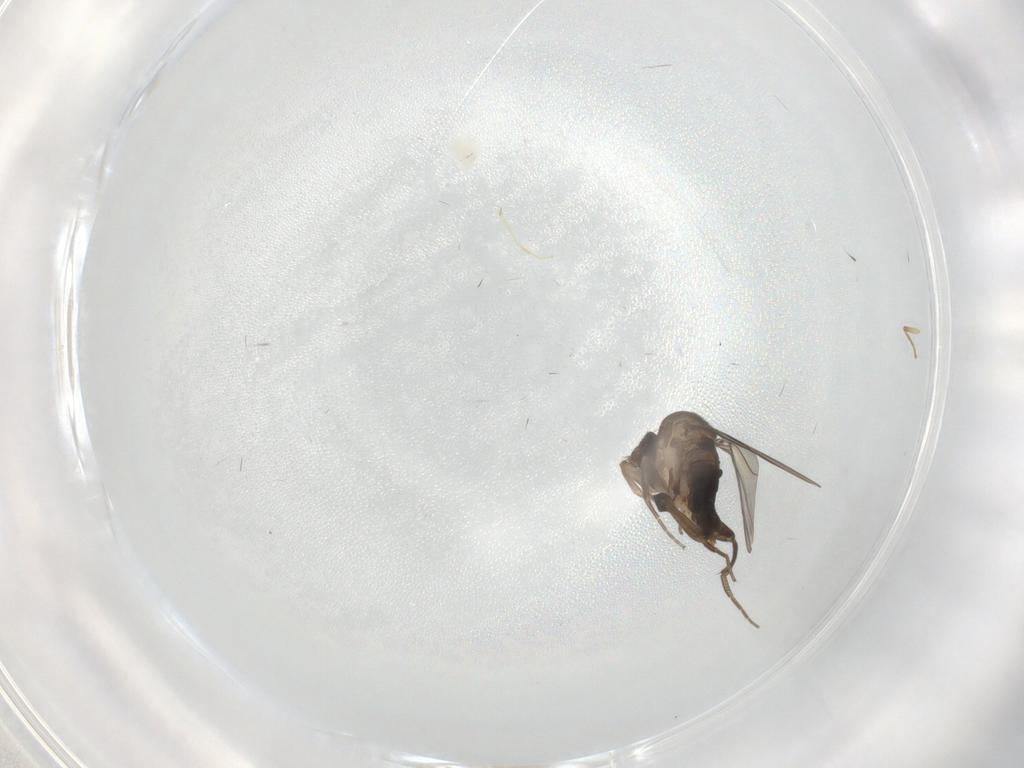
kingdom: Animalia
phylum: Arthropoda
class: Insecta
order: Diptera
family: Phoridae
